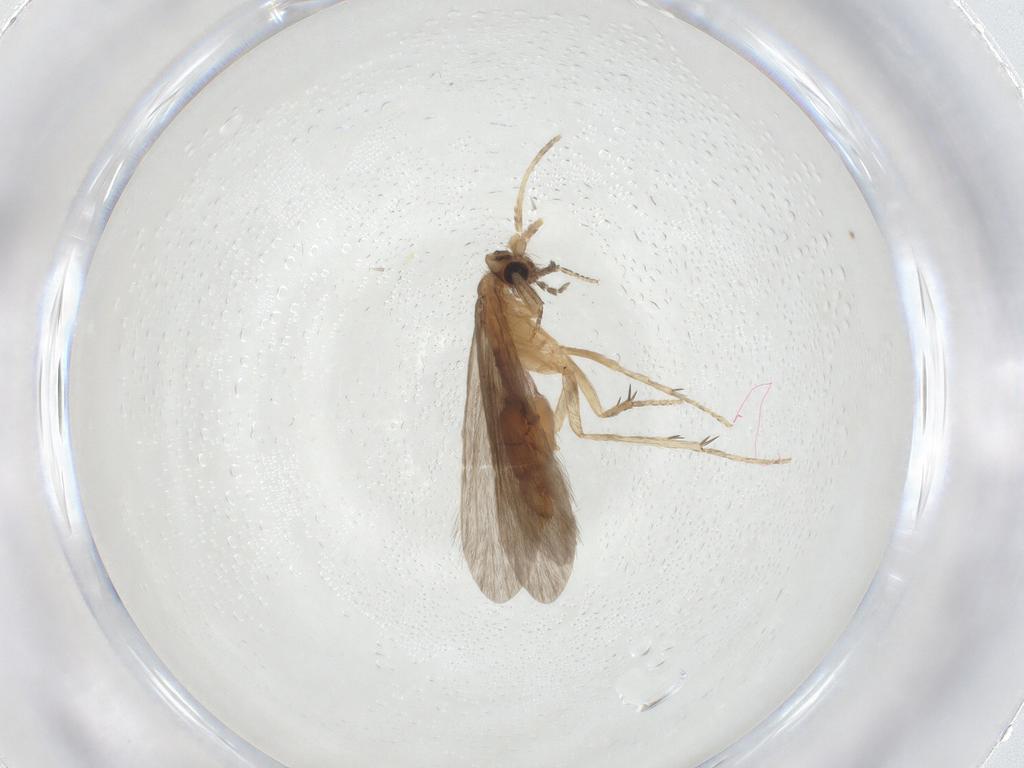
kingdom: Animalia
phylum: Arthropoda
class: Insecta
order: Trichoptera
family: Glossosomatidae
